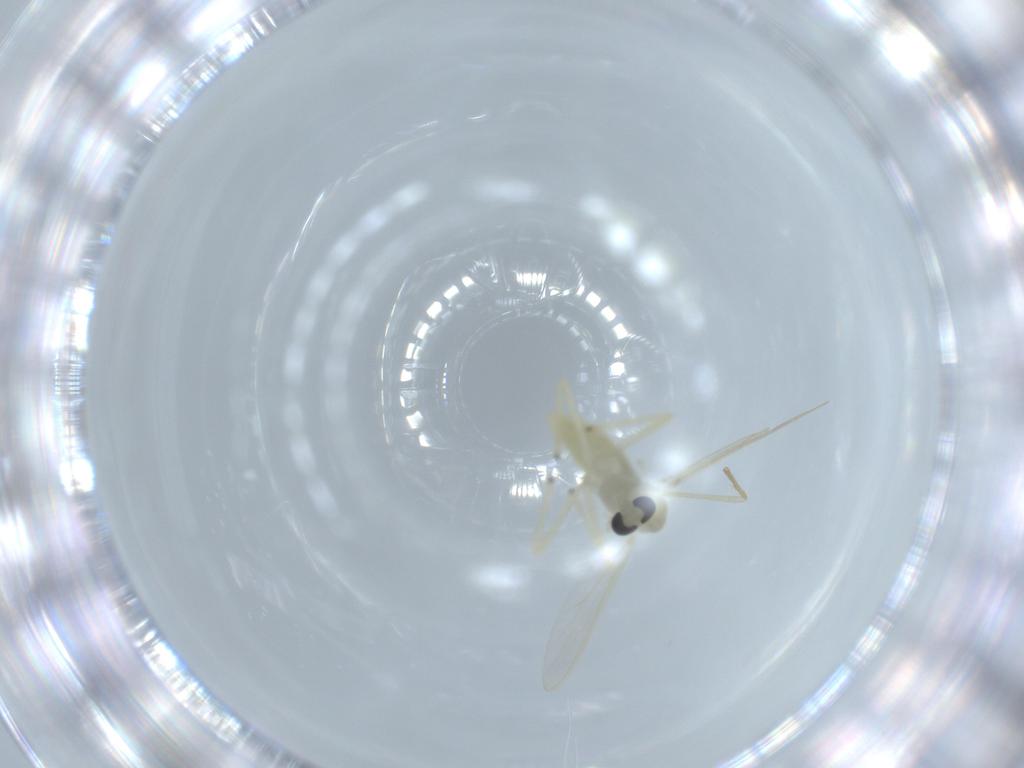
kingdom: Animalia
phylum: Arthropoda
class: Insecta
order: Diptera
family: Chironomidae
